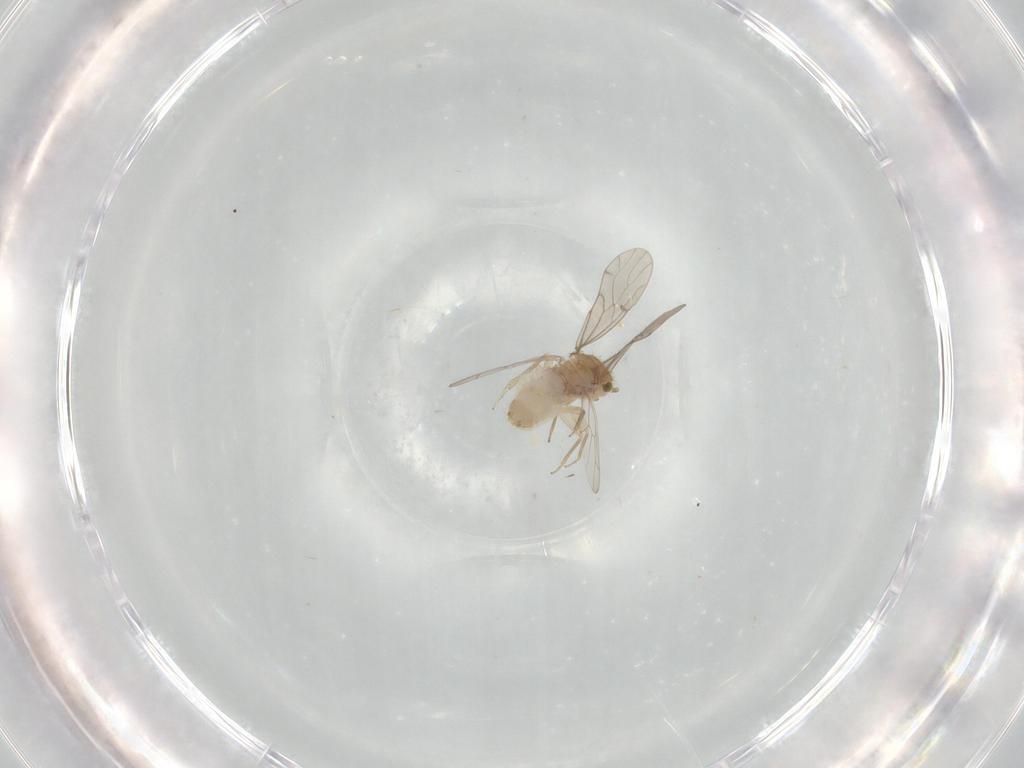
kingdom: Animalia
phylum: Arthropoda
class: Insecta
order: Psocodea
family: Ectopsocidae
